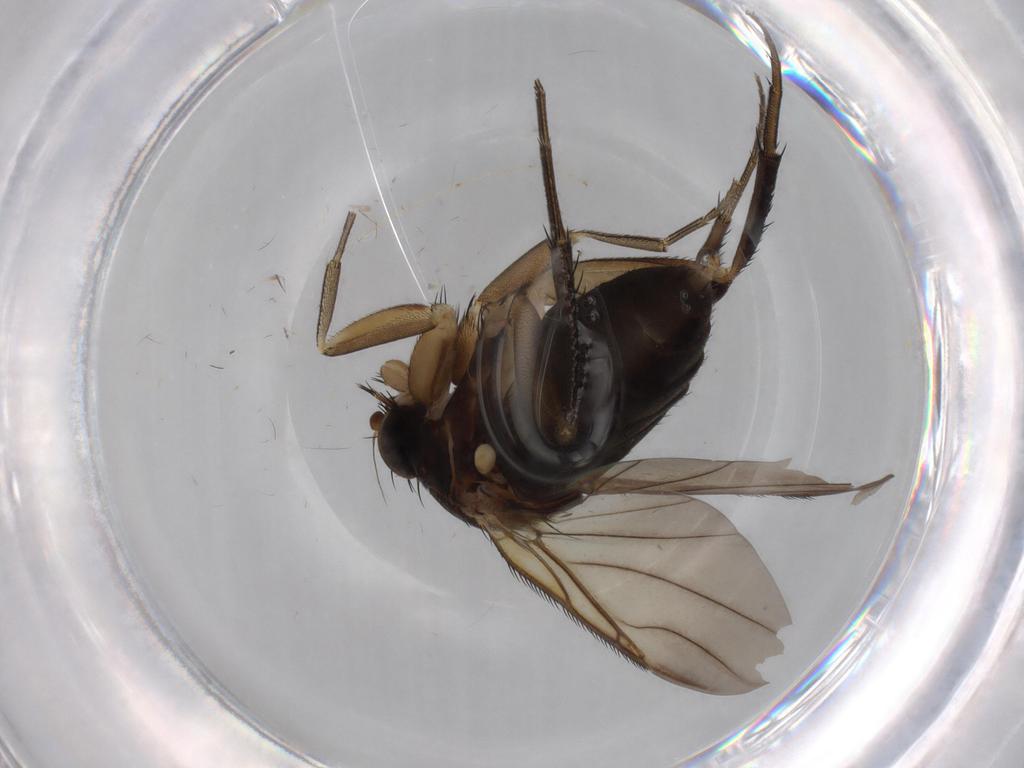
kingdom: Animalia
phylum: Arthropoda
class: Insecta
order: Diptera
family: Phoridae
